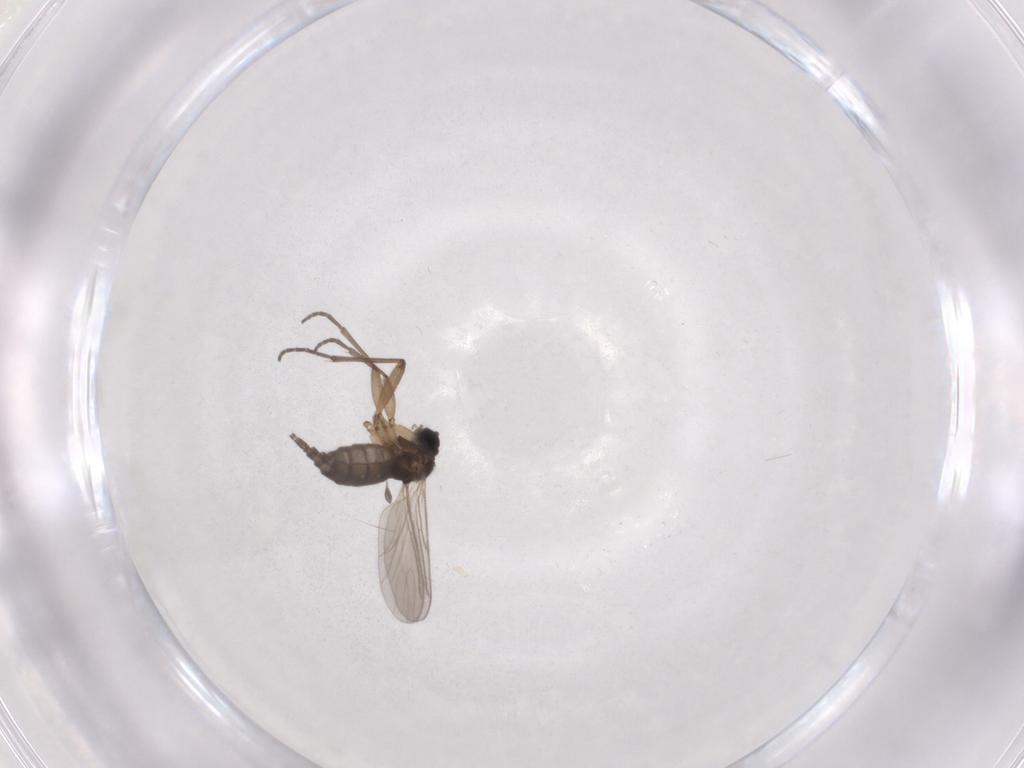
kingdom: Animalia
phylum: Arthropoda
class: Insecta
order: Diptera
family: Sciaridae
